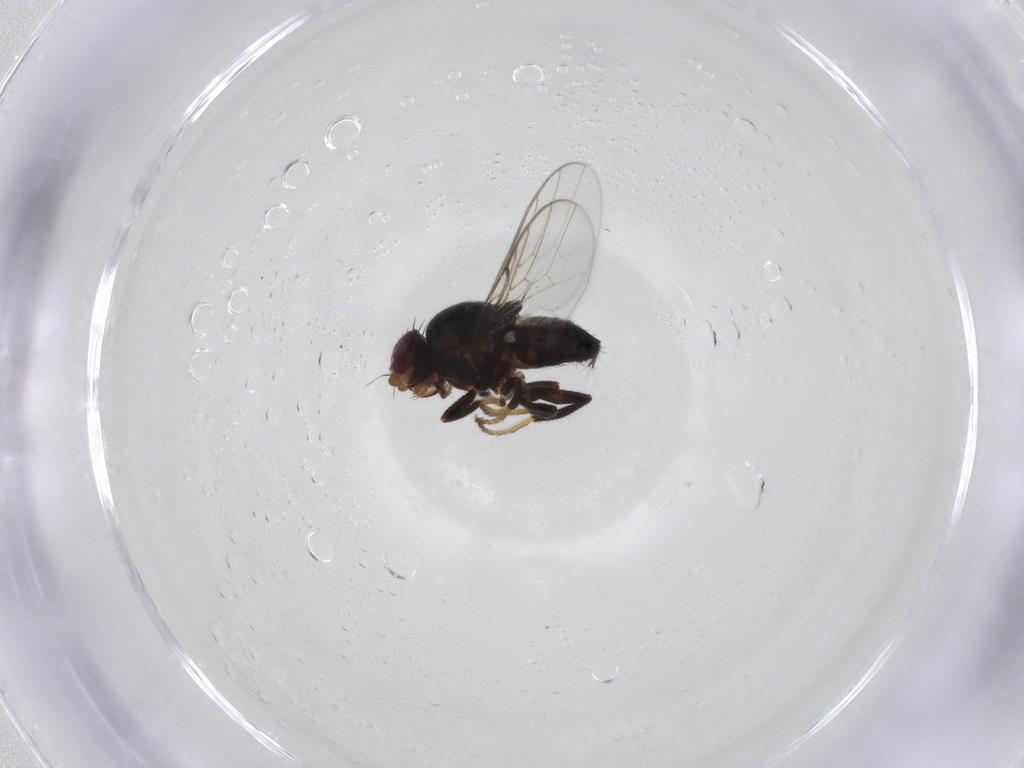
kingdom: Animalia
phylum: Arthropoda
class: Insecta
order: Diptera
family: Chloropidae
